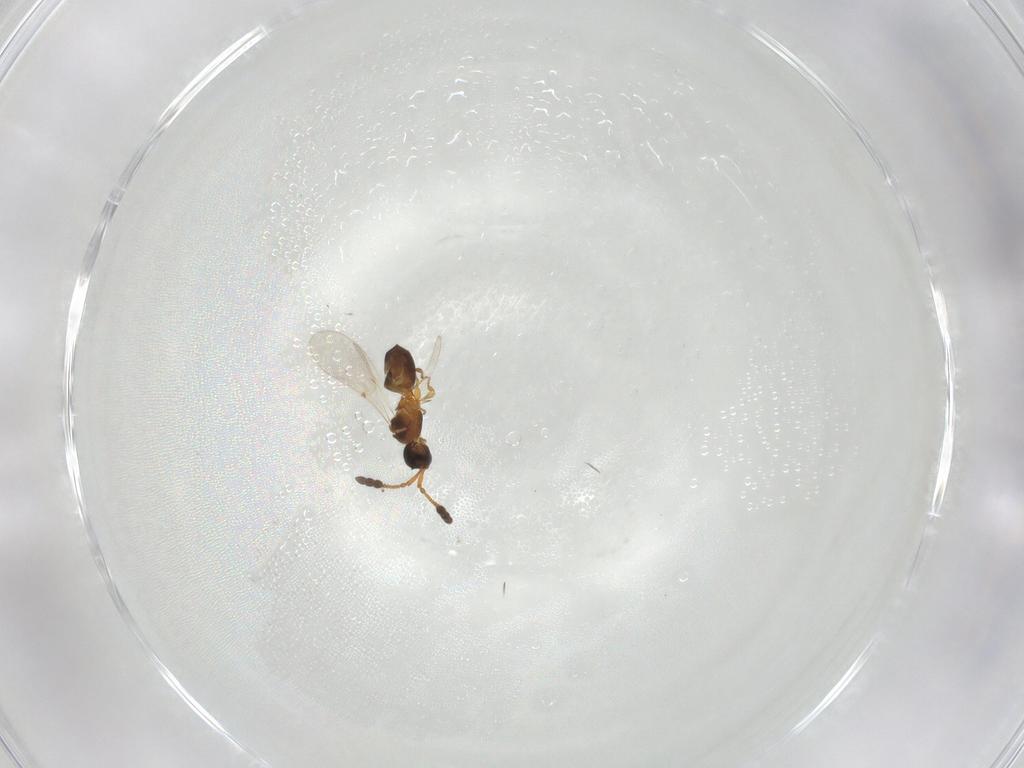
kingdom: Animalia
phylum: Arthropoda
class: Insecta
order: Hymenoptera
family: Diapriidae
